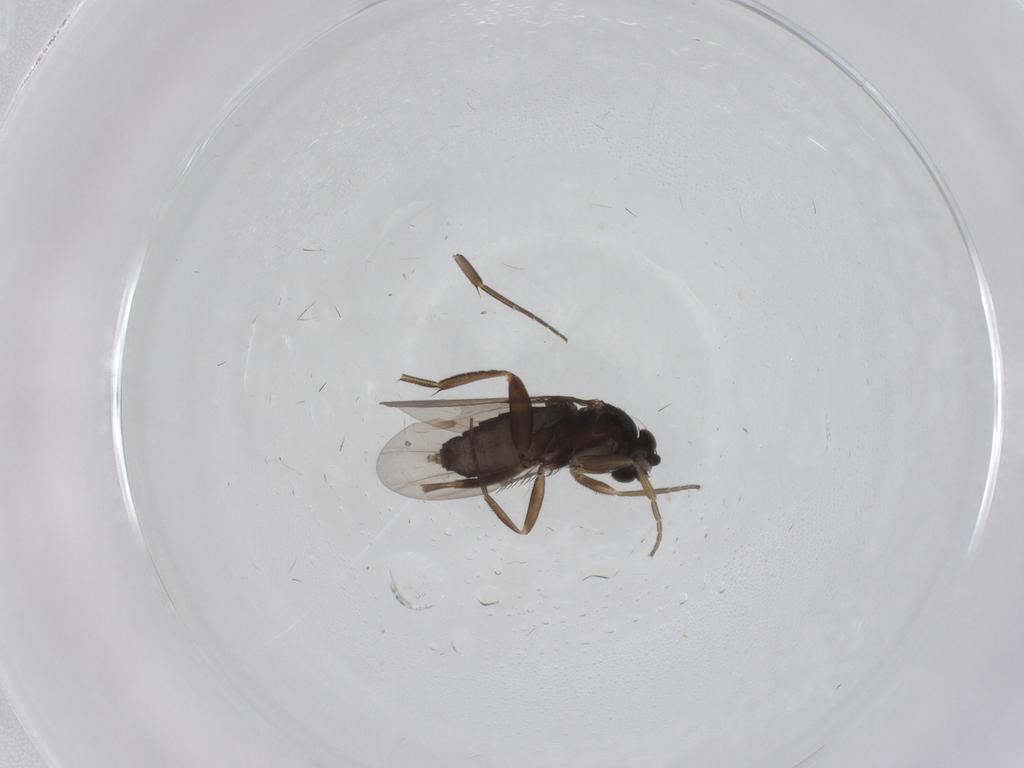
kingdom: Animalia
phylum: Arthropoda
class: Insecta
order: Diptera
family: Phoridae
